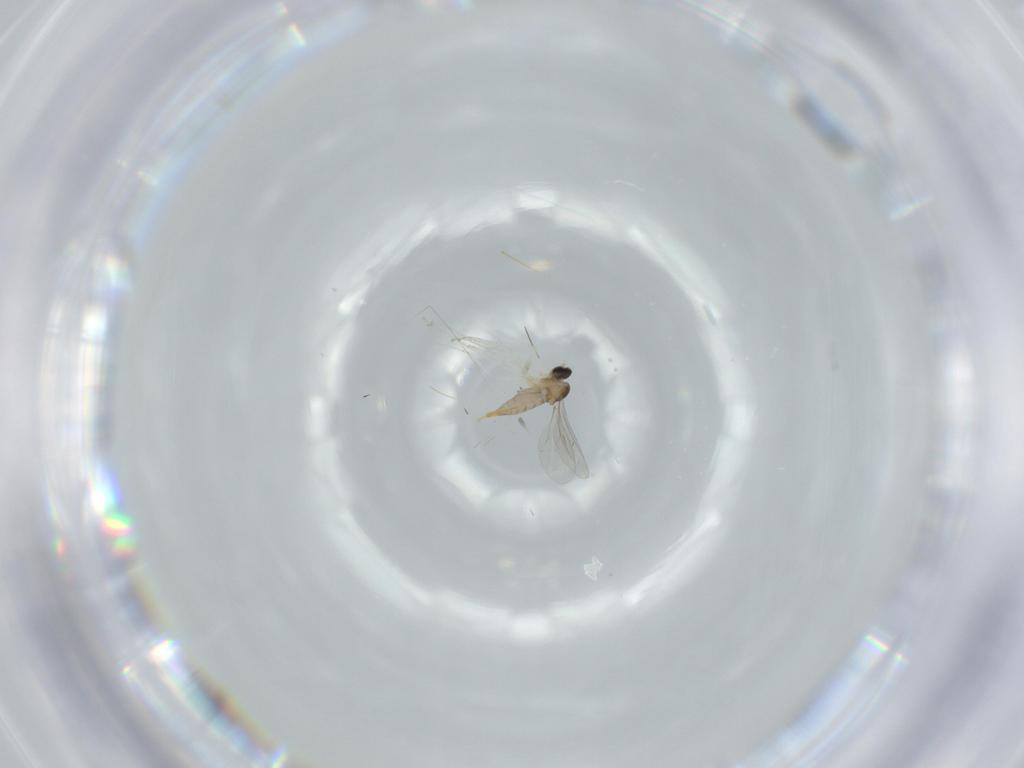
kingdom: Animalia
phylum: Arthropoda
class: Insecta
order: Diptera
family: Cecidomyiidae
